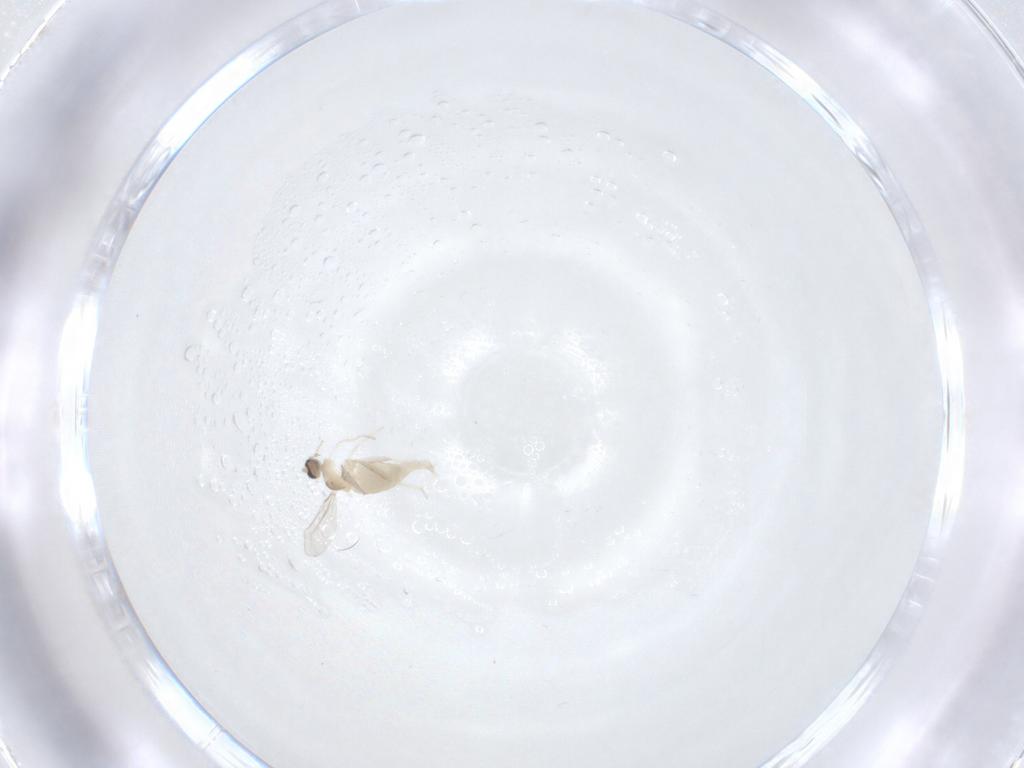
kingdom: Animalia
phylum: Arthropoda
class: Insecta
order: Diptera
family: Cecidomyiidae
